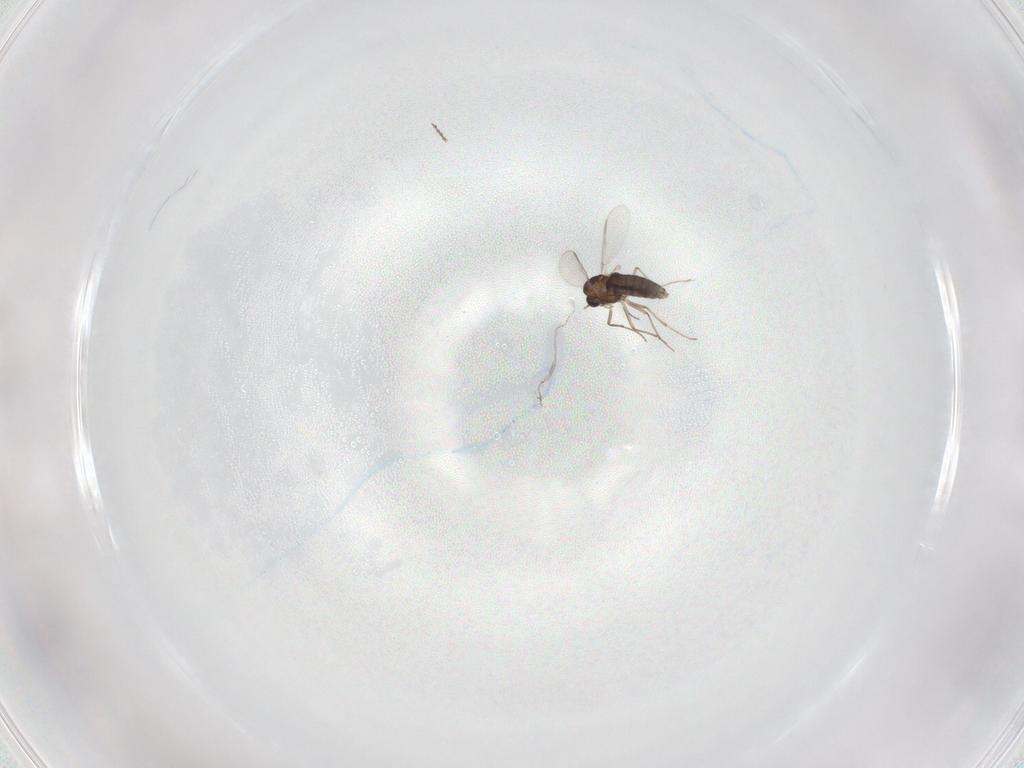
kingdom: Animalia
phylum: Arthropoda
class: Insecta
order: Diptera
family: Chironomidae
